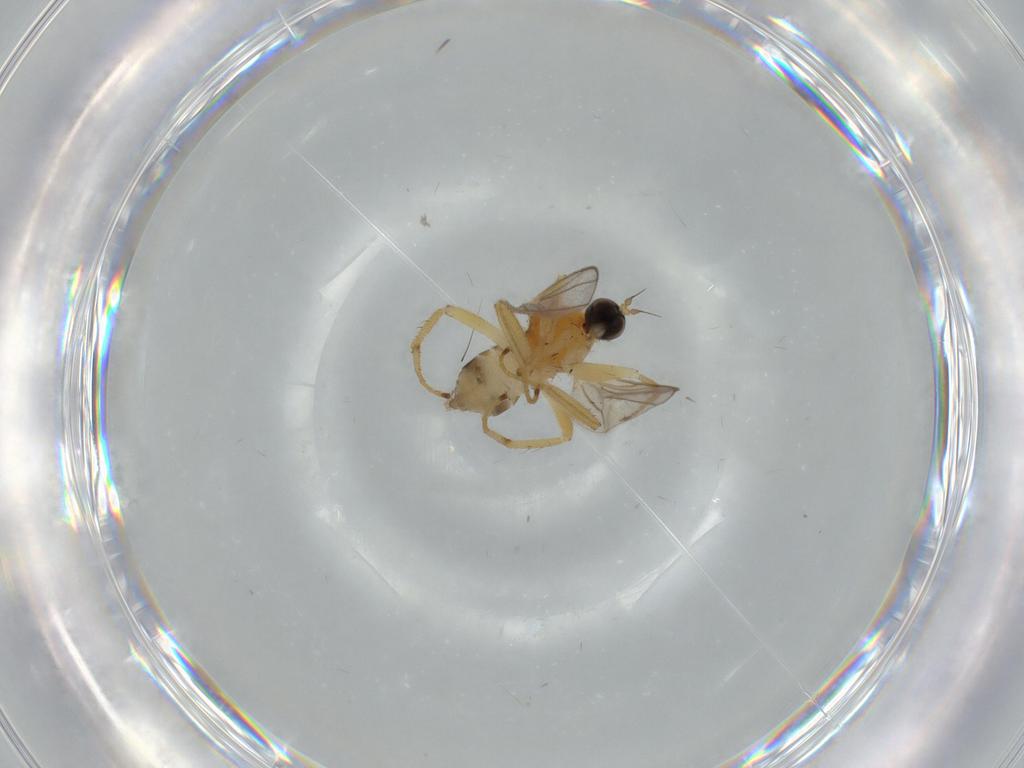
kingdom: Animalia
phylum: Arthropoda
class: Insecta
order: Diptera
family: Hybotidae
